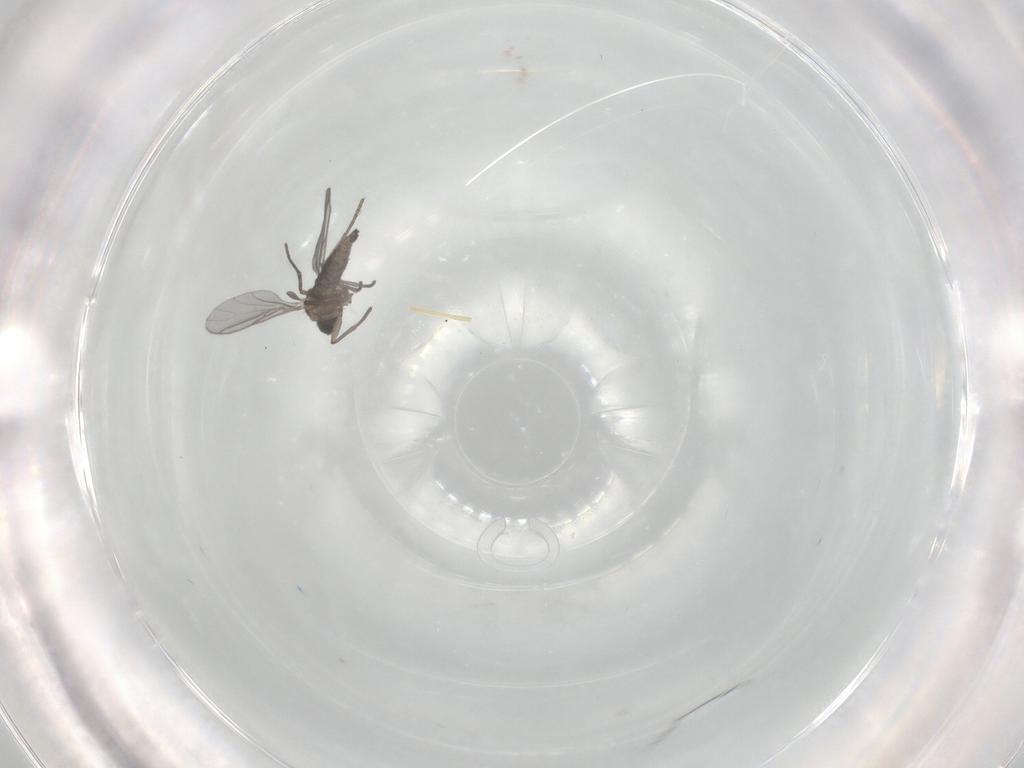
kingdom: Animalia
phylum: Arthropoda
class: Insecta
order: Diptera
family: Sciaridae
